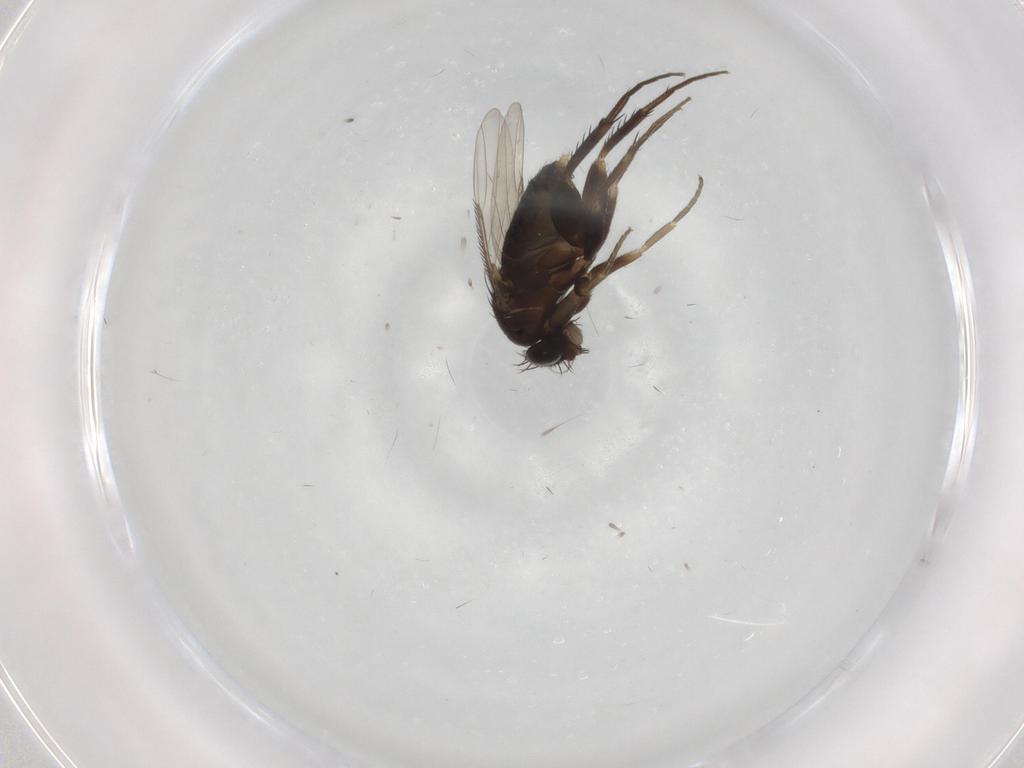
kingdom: Animalia
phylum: Arthropoda
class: Insecta
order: Diptera
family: Phoridae
